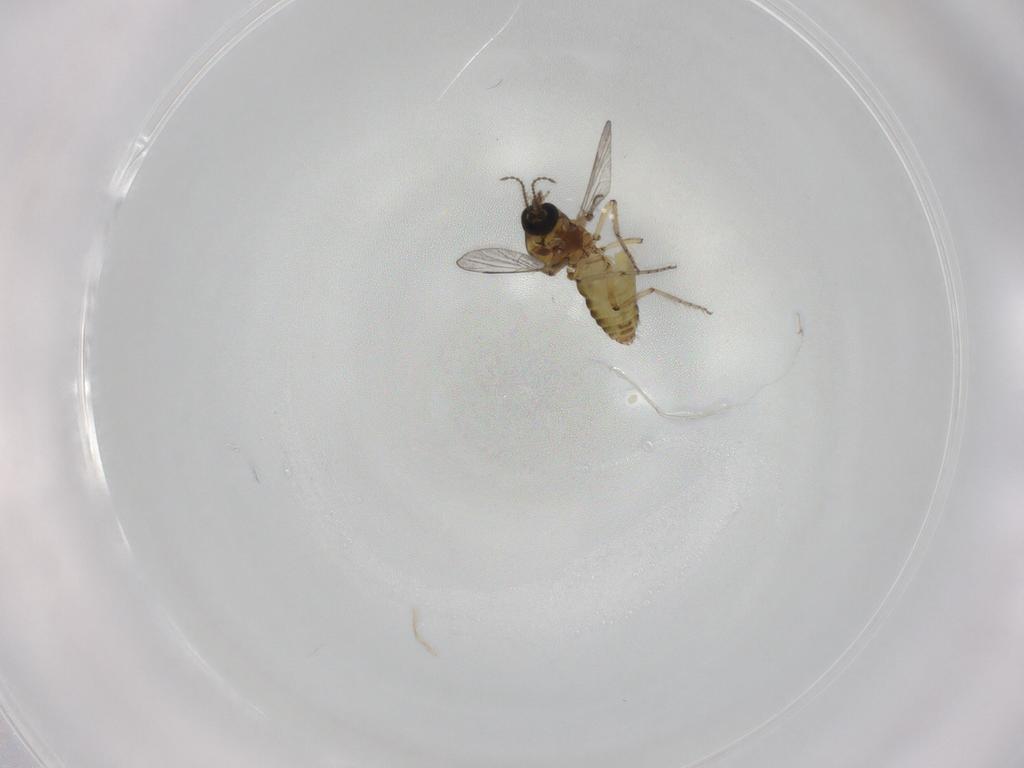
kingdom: Animalia
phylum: Arthropoda
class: Insecta
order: Diptera
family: Ceratopogonidae
